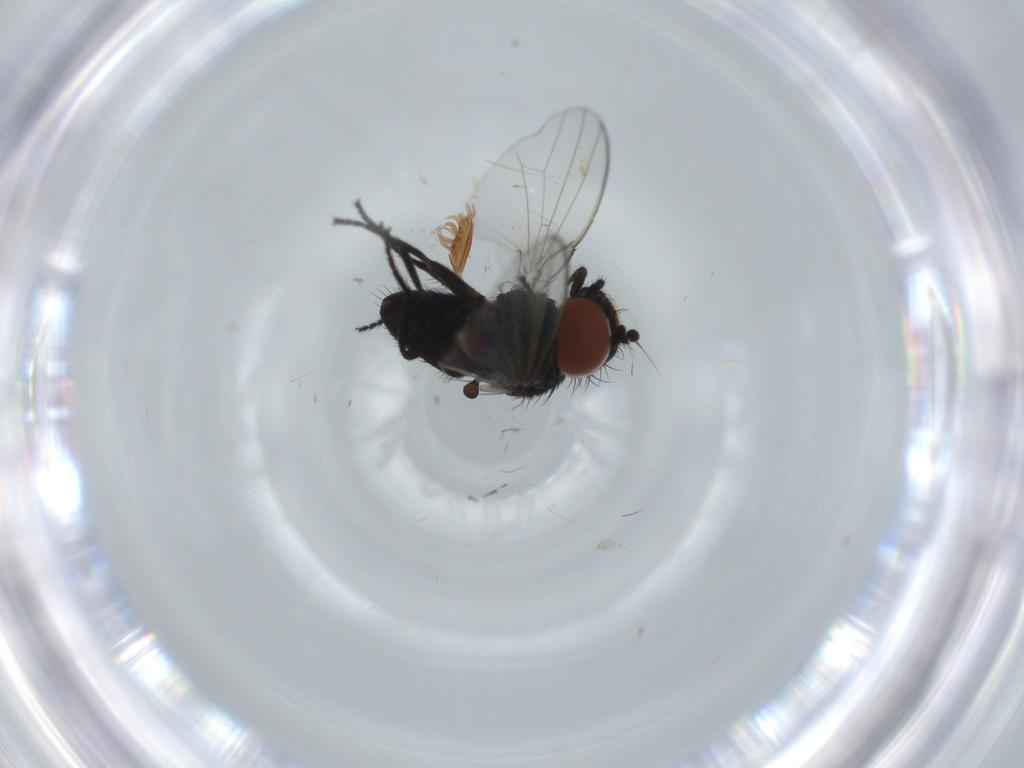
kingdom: Animalia
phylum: Arthropoda
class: Insecta
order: Diptera
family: Milichiidae
